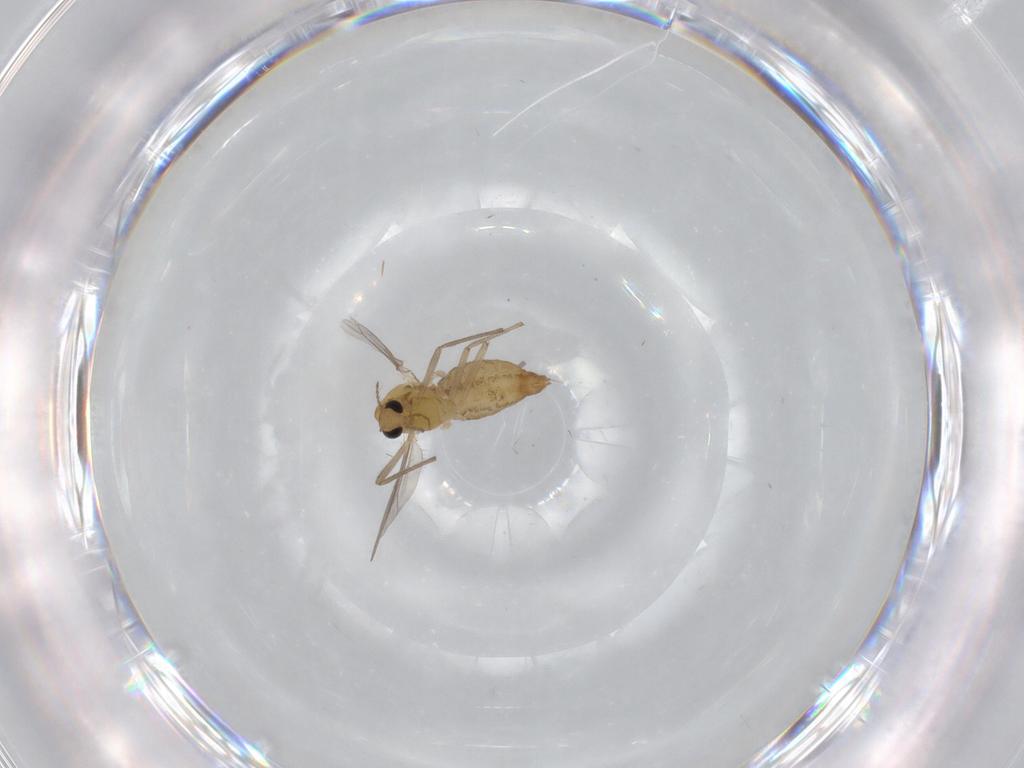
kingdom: Animalia
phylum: Arthropoda
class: Insecta
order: Diptera
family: Chironomidae
